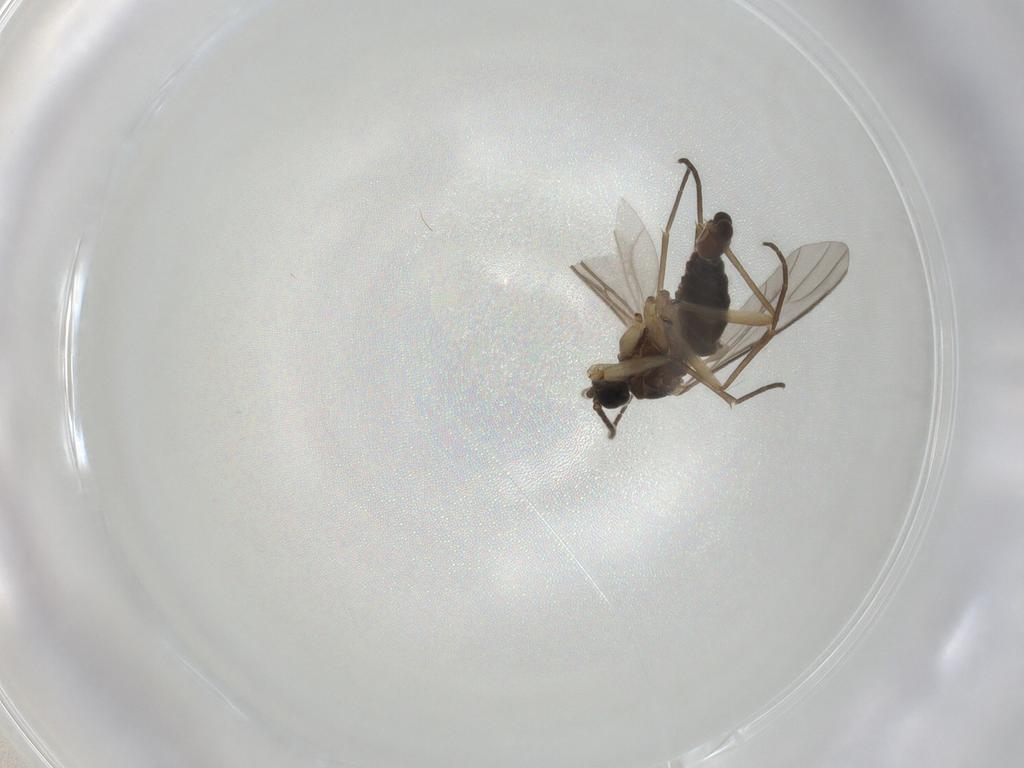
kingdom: Animalia
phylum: Arthropoda
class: Insecta
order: Diptera
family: Sciaridae
